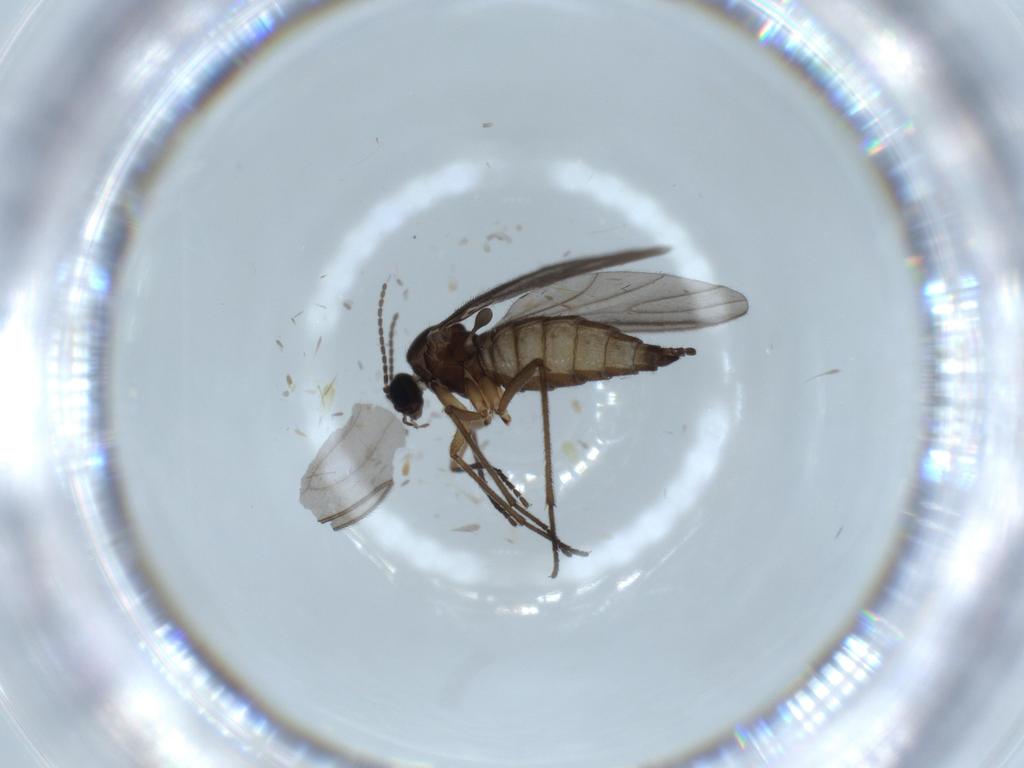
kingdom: Animalia
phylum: Arthropoda
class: Insecta
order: Diptera
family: Sciaridae
